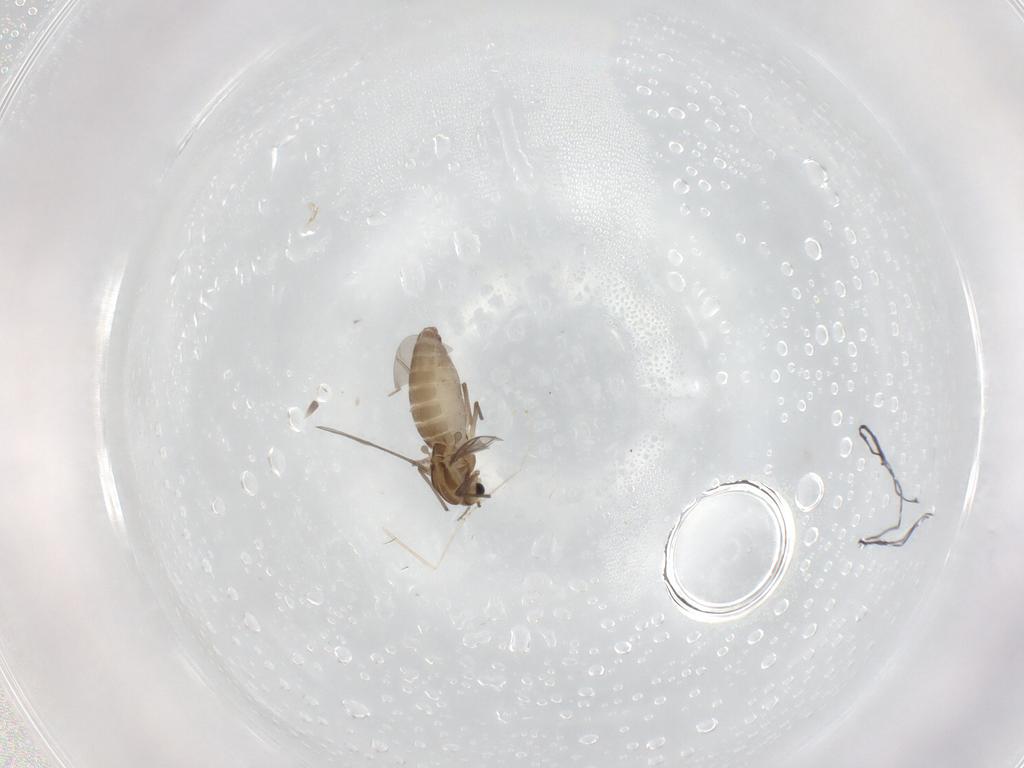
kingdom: Animalia
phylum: Arthropoda
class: Insecta
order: Diptera
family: Chironomidae
